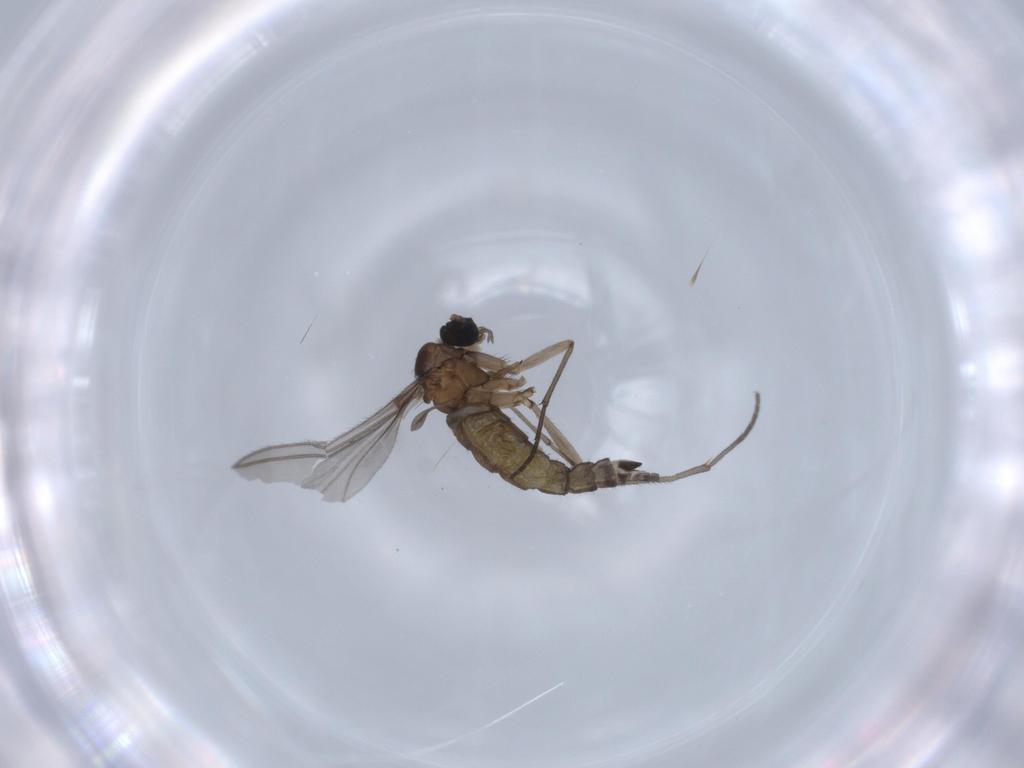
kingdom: Animalia
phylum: Arthropoda
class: Insecta
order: Diptera
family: Sciaridae
